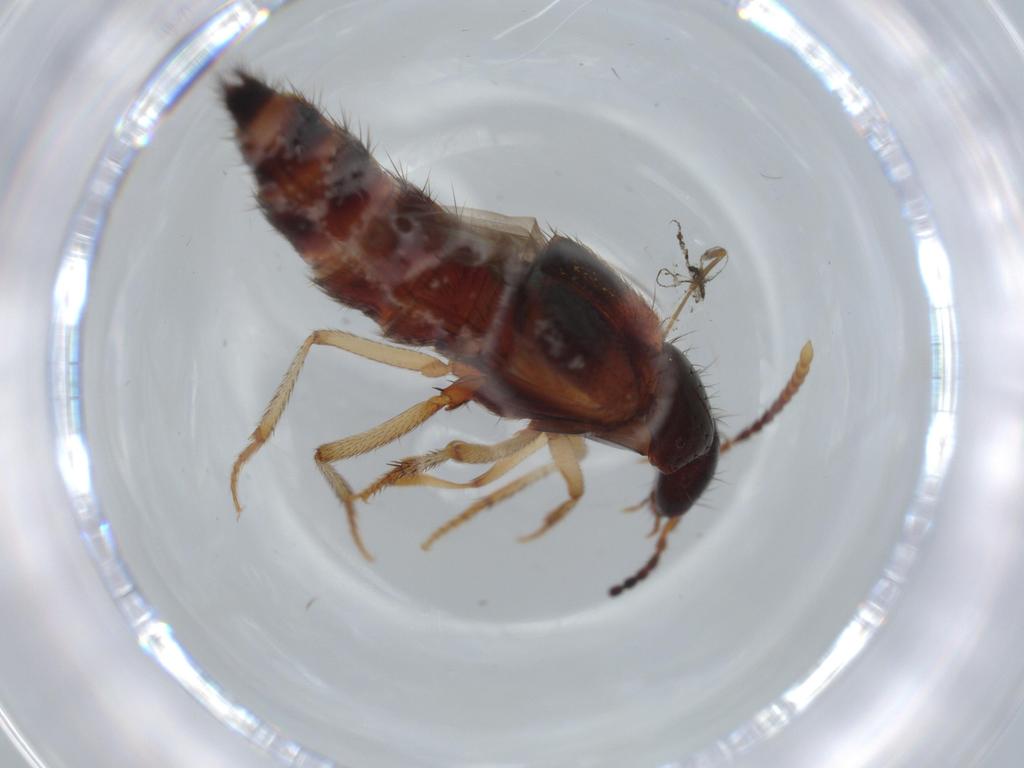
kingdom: Animalia
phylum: Arthropoda
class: Insecta
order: Coleoptera
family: Staphylinidae
